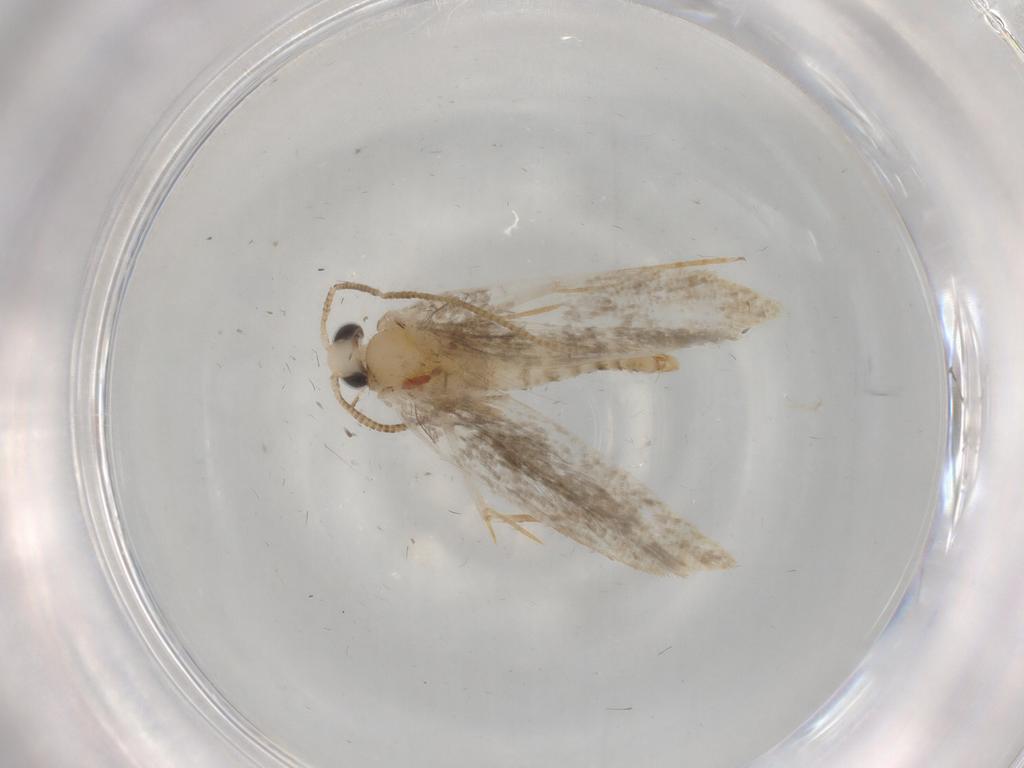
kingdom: Animalia
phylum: Arthropoda
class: Insecta
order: Lepidoptera
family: Tineidae
